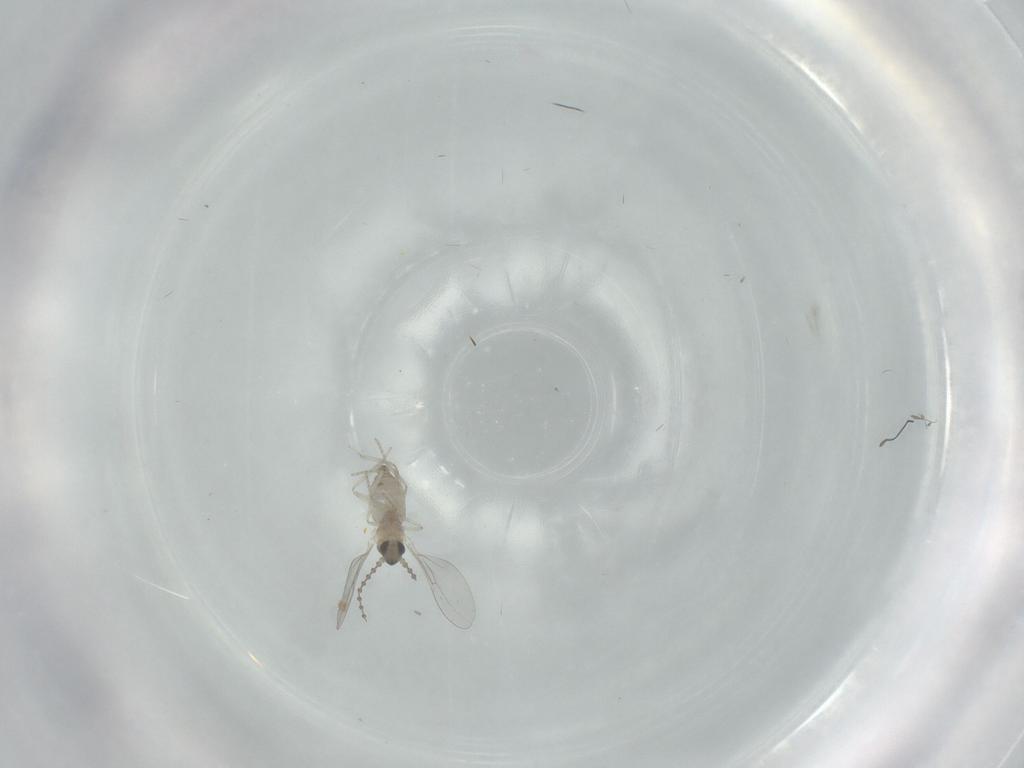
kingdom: Animalia
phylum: Arthropoda
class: Insecta
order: Diptera
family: Cecidomyiidae
